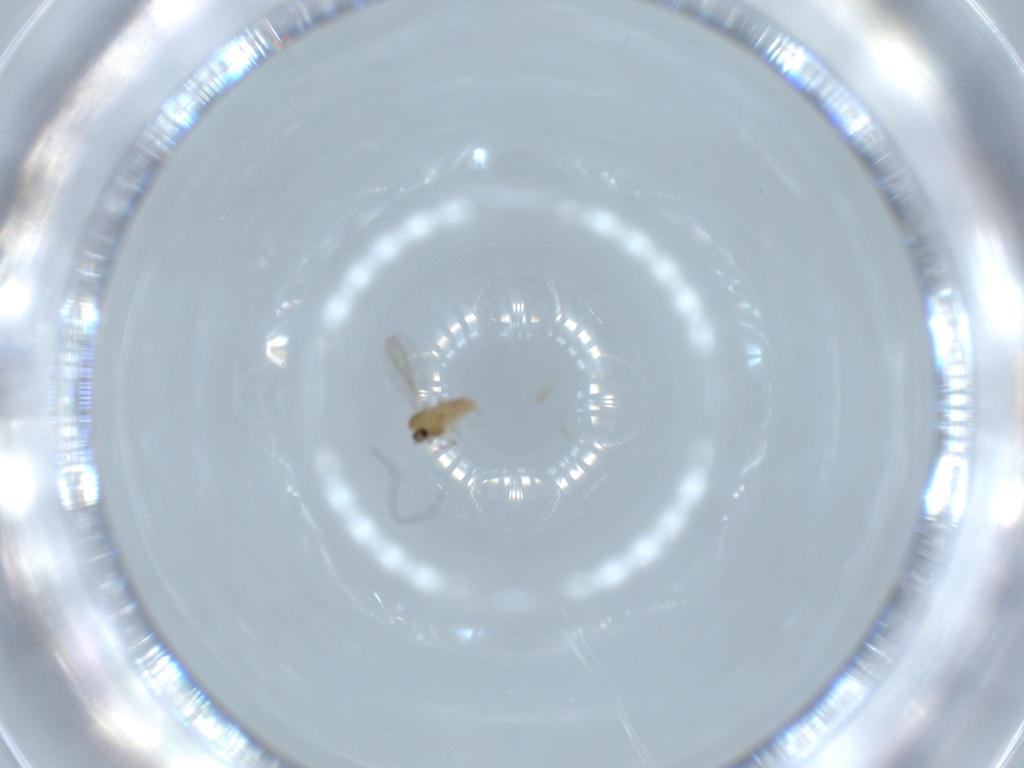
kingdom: Animalia
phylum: Arthropoda
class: Insecta
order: Diptera
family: Chironomidae
